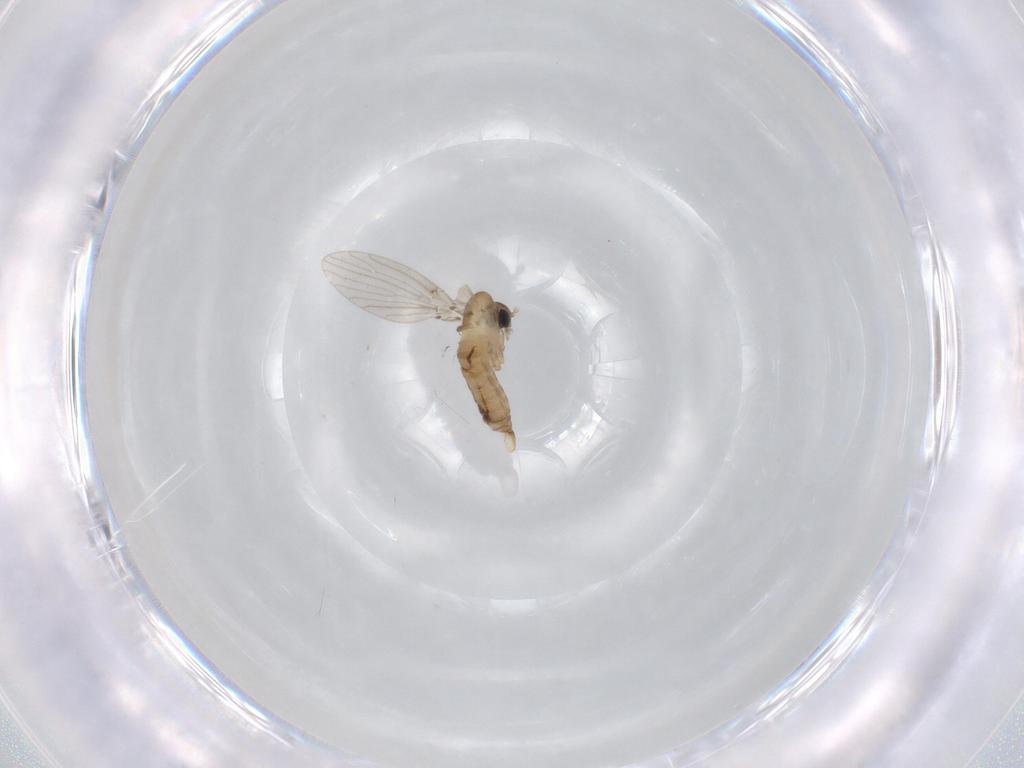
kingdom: Animalia
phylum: Arthropoda
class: Insecta
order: Diptera
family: Psychodidae
